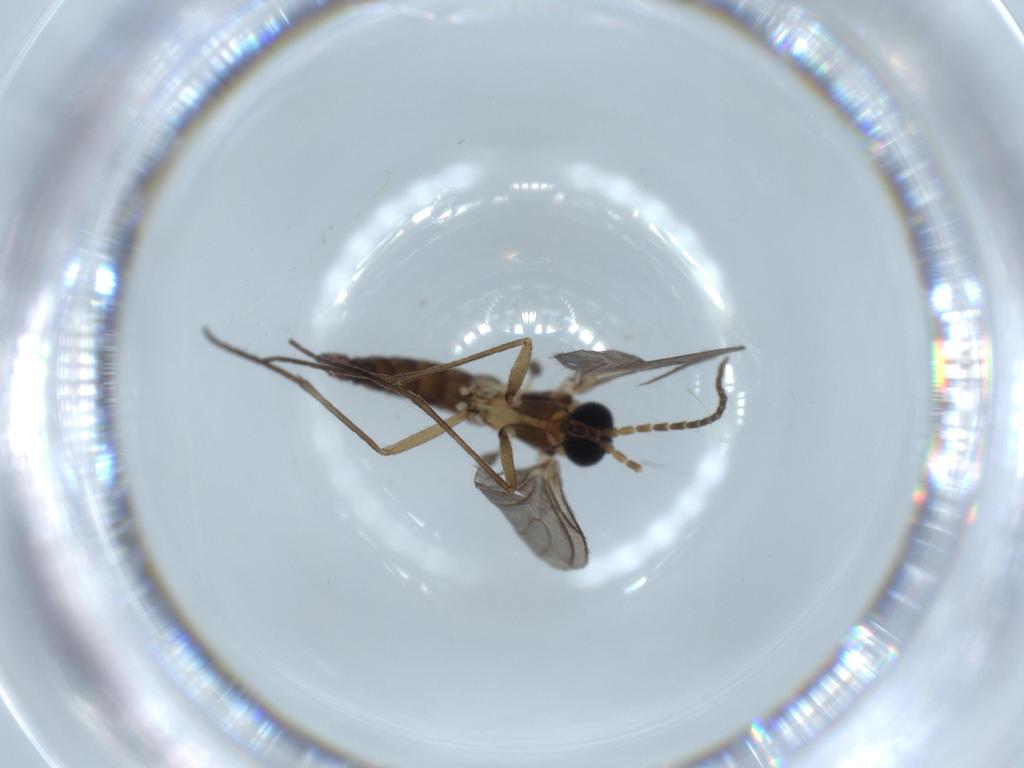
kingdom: Animalia
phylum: Arthropoda
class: Insecta
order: Diptera
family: Sciaridae
